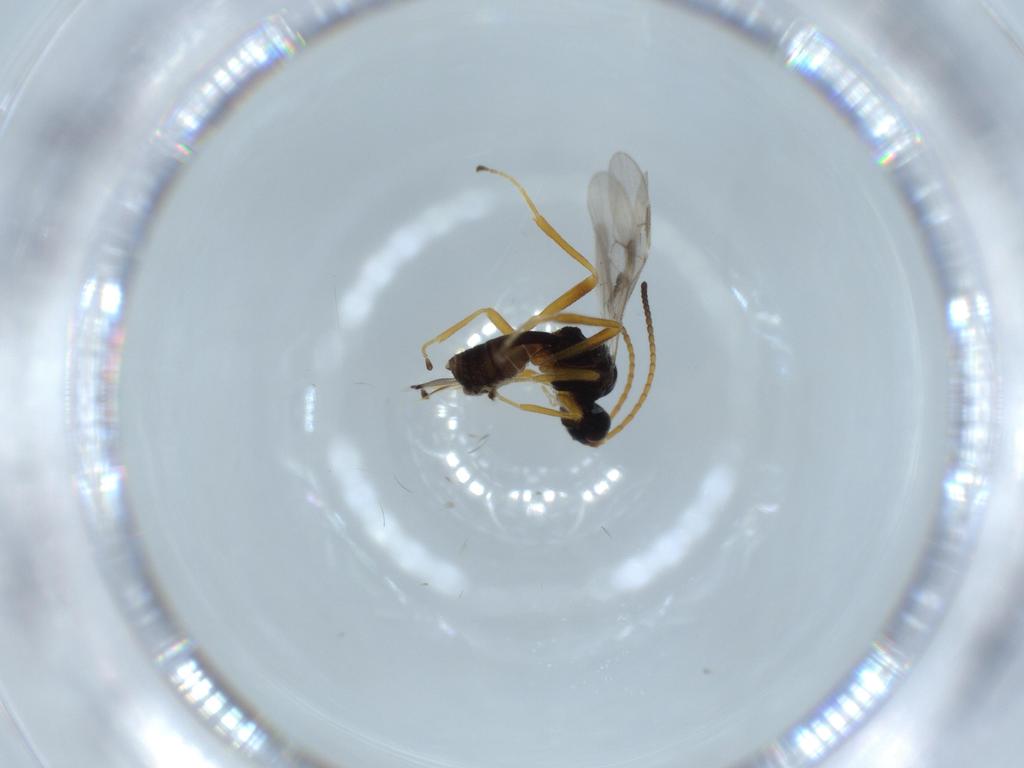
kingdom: Animalia
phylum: Arthropoda
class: Insecta
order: Hymenoptera
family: Braconidae
